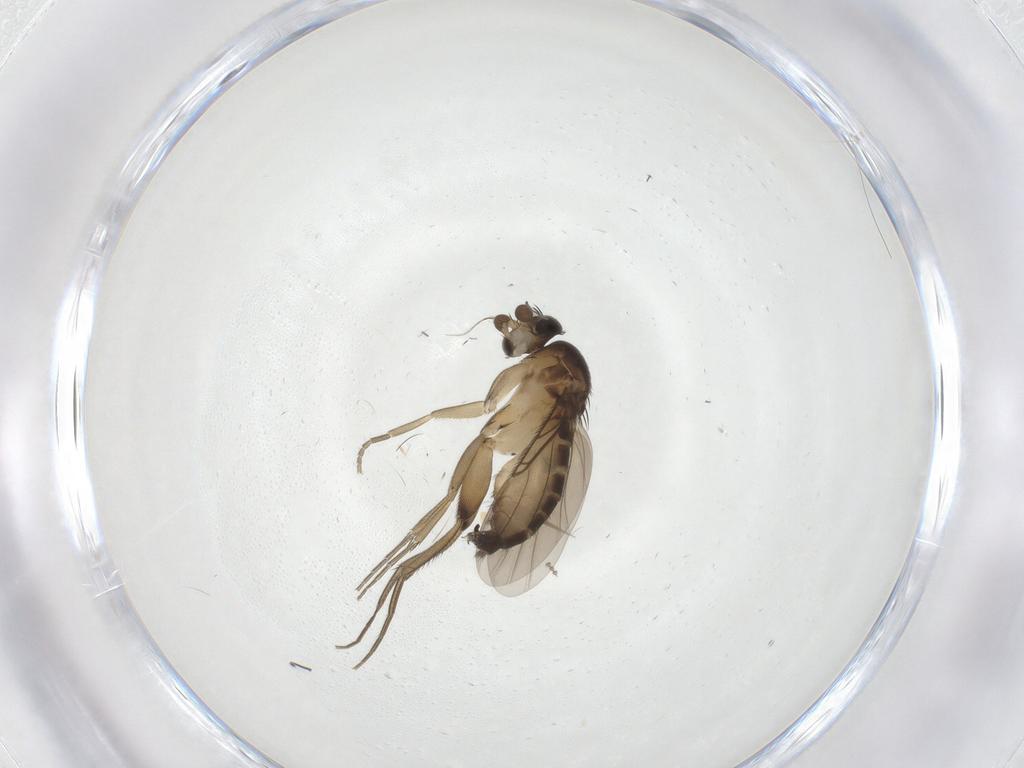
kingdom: Animalia
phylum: Arthropoda
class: Insecta
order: Diptera
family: Phoridae
